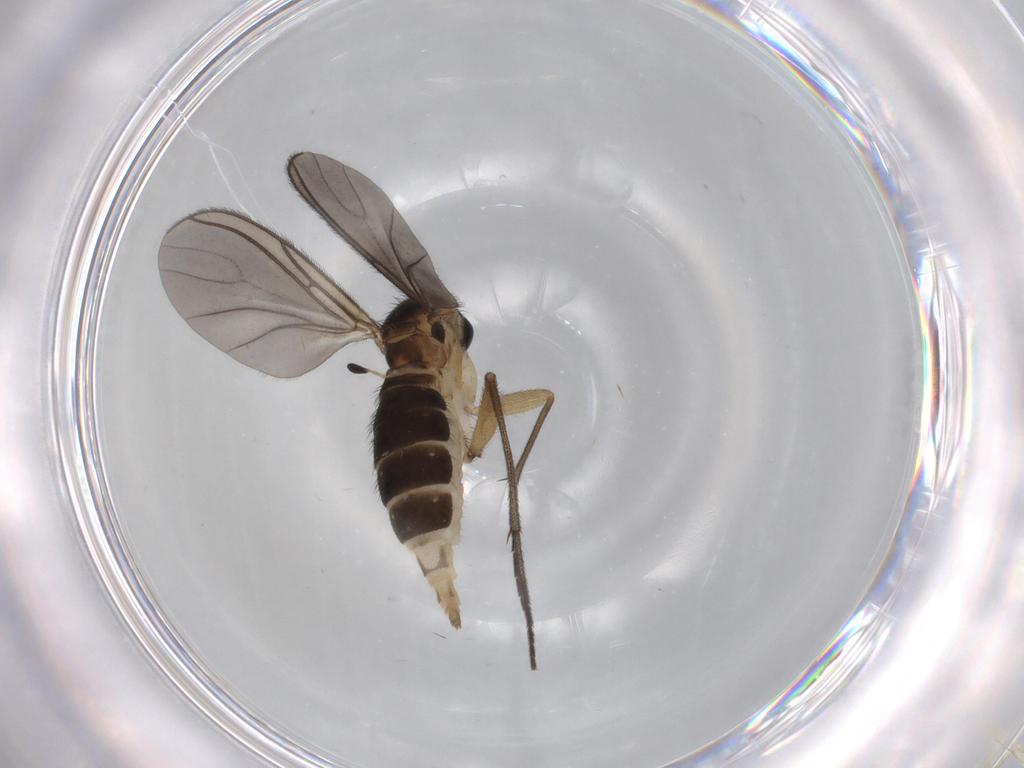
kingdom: Animalia
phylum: Arthropoda
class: Insecta
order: Diptera
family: Sciaridae
